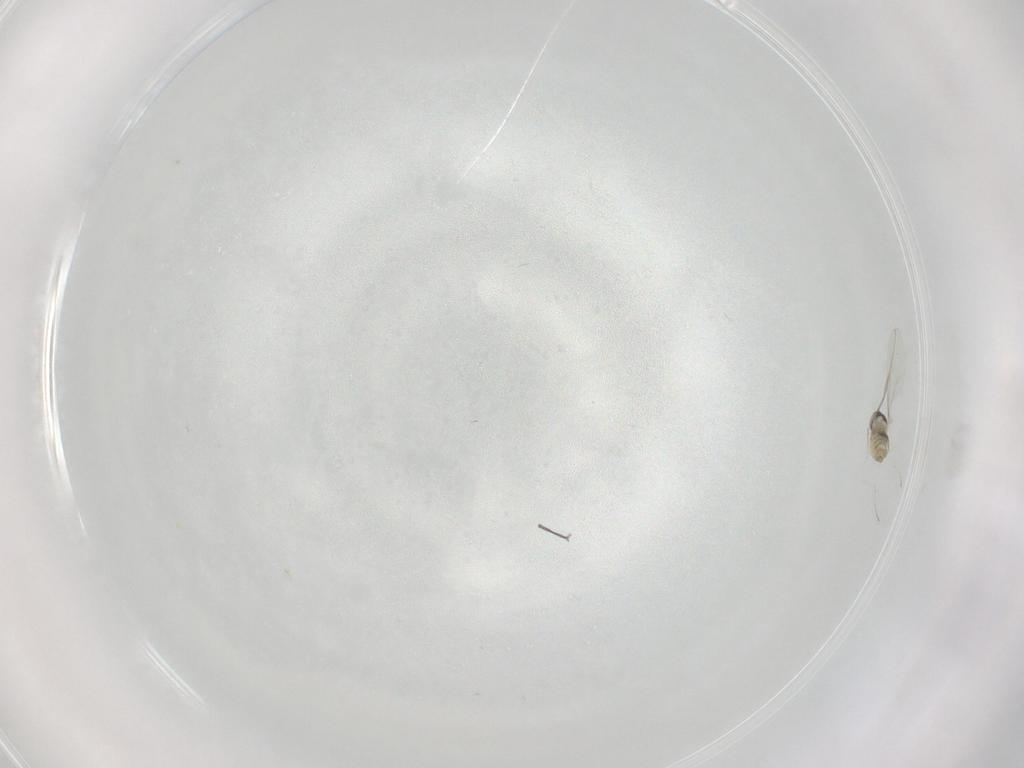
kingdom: Animalia
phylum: Arthropoda
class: Insecta
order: Diptera
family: Cecidomyiidae
